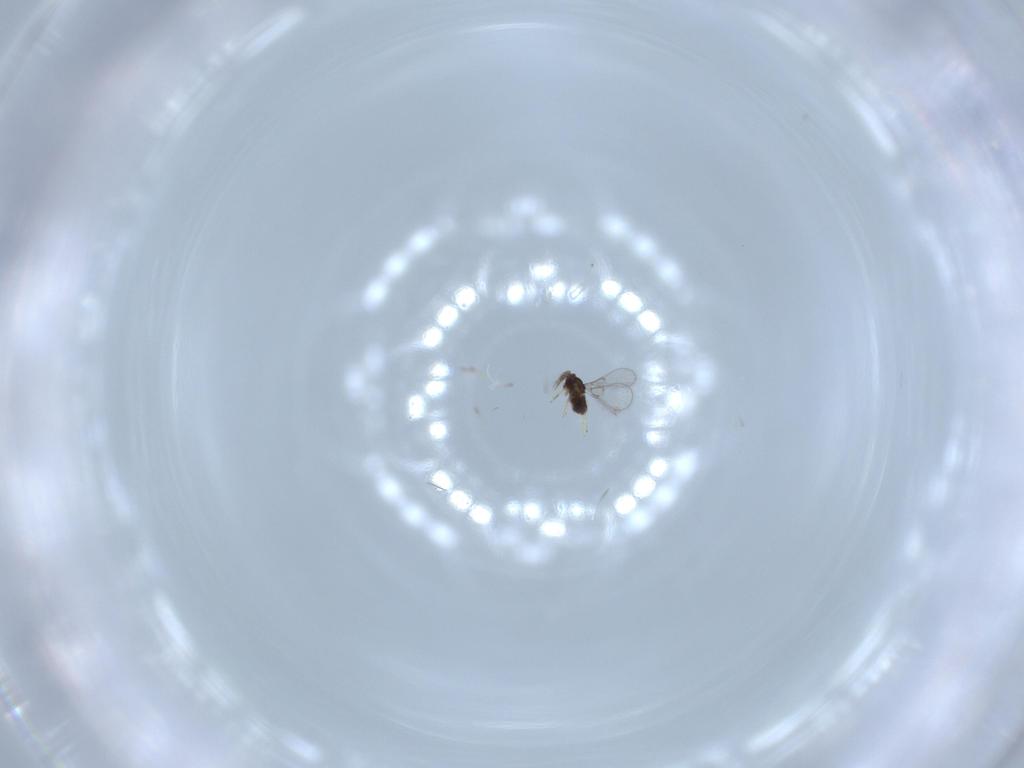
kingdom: Animalia
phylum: Arthropoda
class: Insecta
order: Hymenoptera
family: Trichogrammatidae
